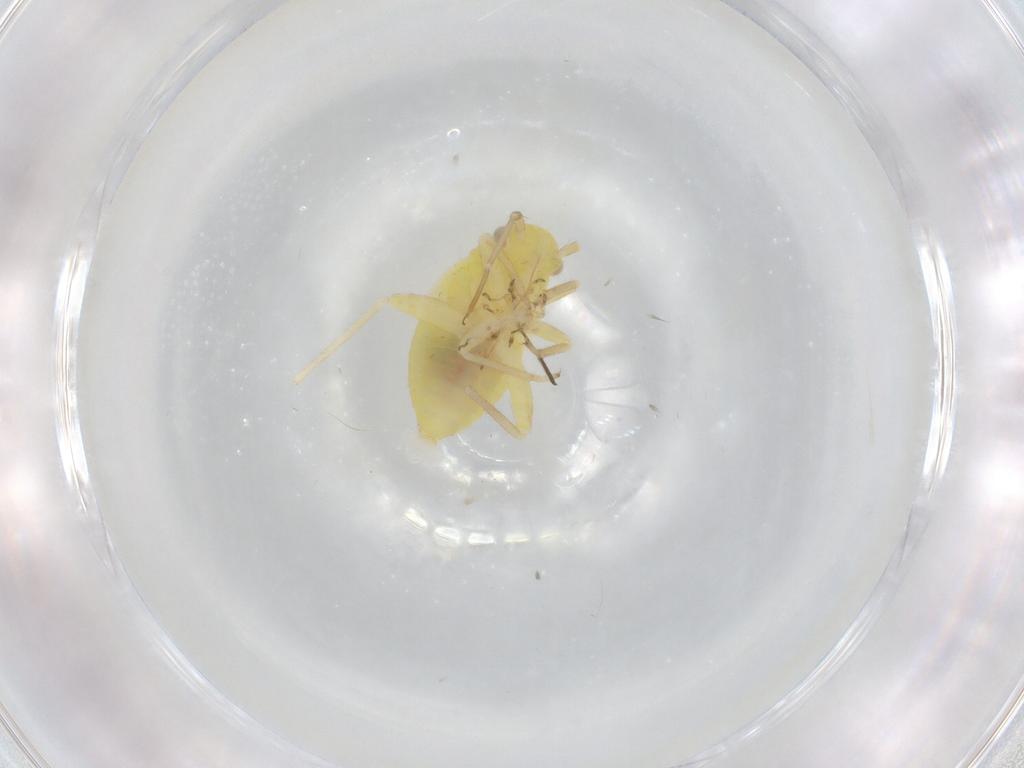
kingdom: Animalia
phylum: Arthropoda
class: Insecta
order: Hemiptera
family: Miridae
